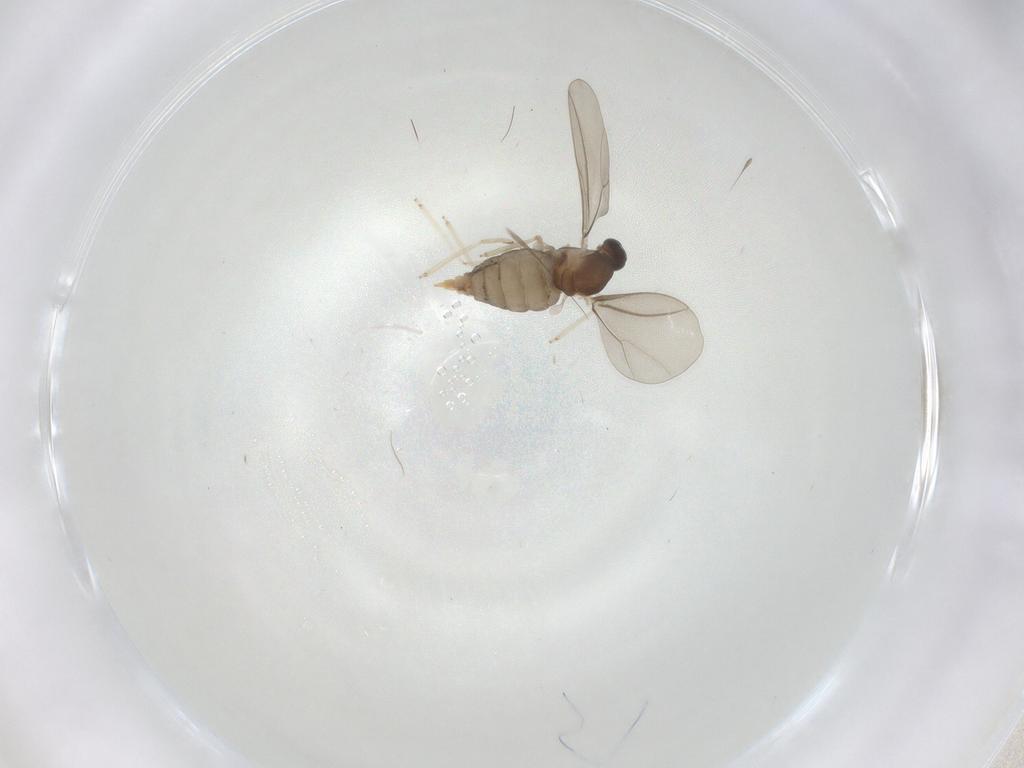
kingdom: Animalia
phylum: Arthropoda
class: Insecta
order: Diptera
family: Cecidomyiidae
